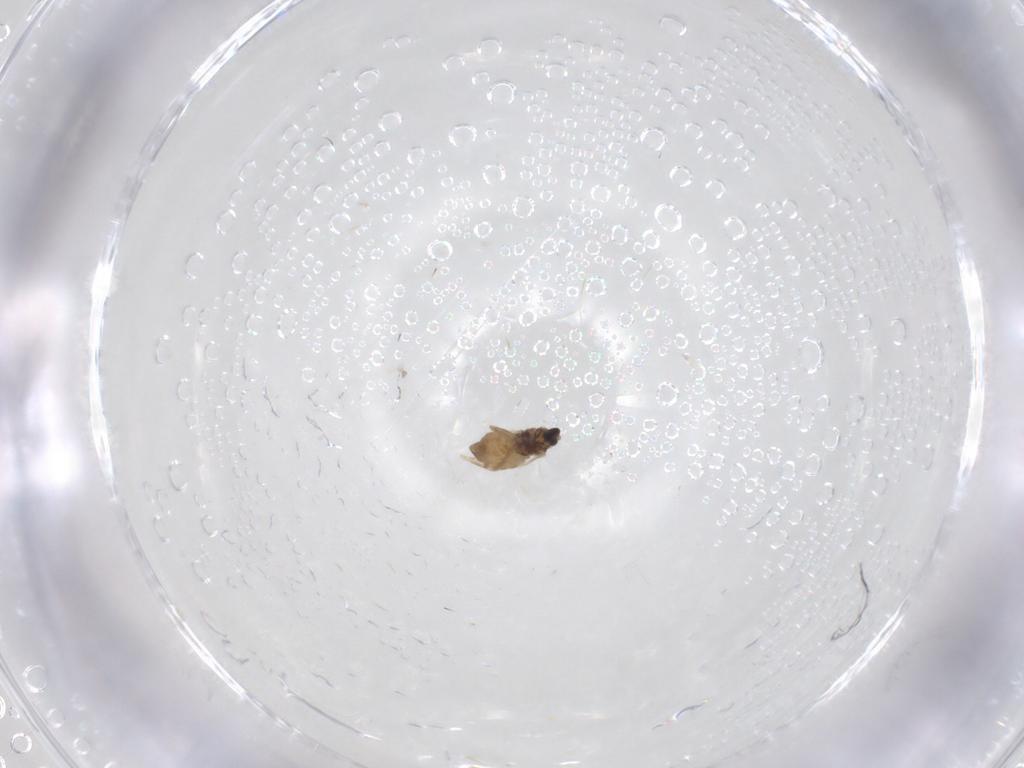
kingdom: Animalia
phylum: Arthropoda
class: Insecta
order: Diptera
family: Cecidomyiidae
